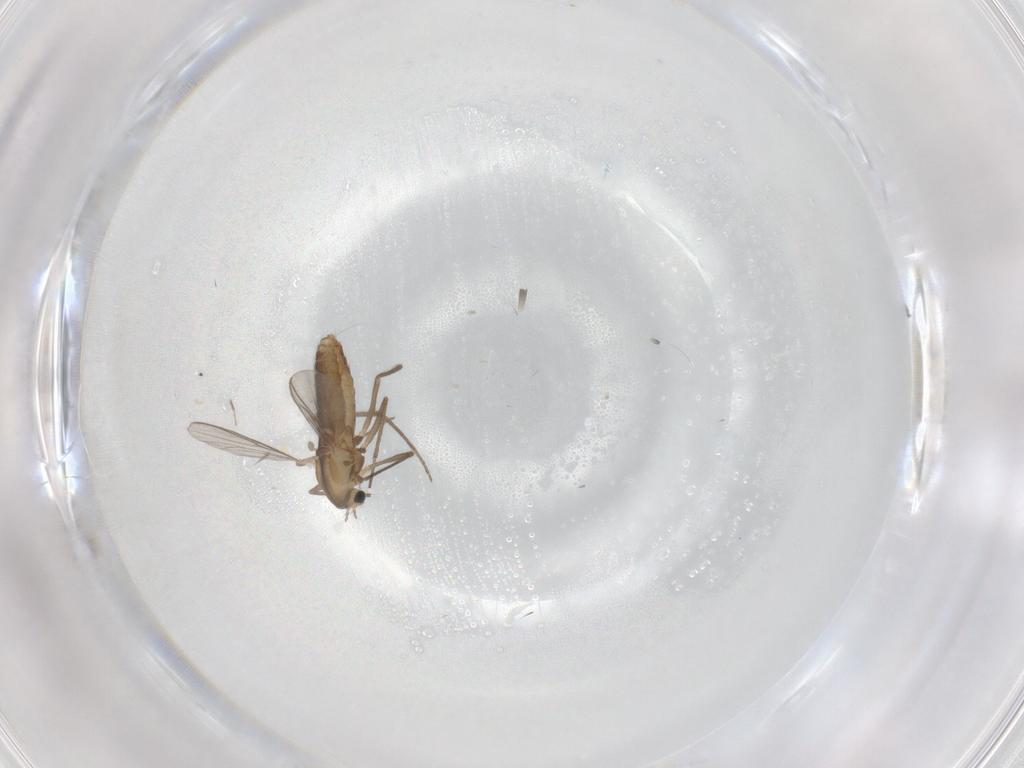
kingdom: Animalia
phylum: Arthropoda
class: Insecta
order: Diptera
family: Chironomidae
